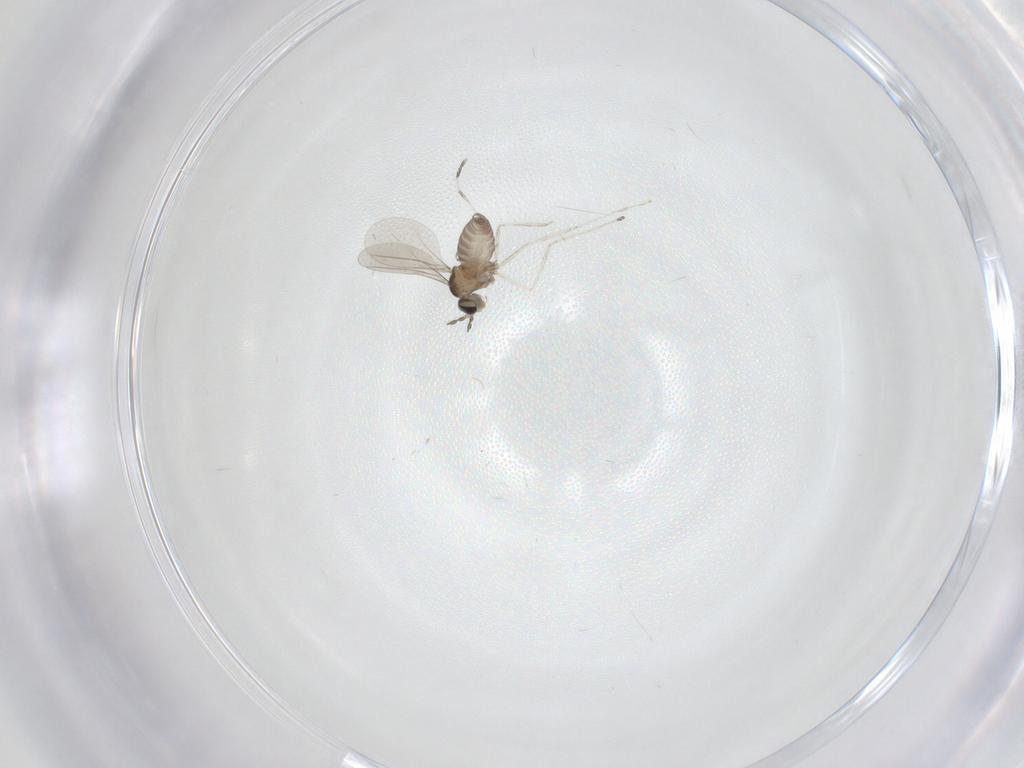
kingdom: Animalia
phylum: Arthropoda
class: Insecta
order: Diptera
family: Cecidomyiidae
